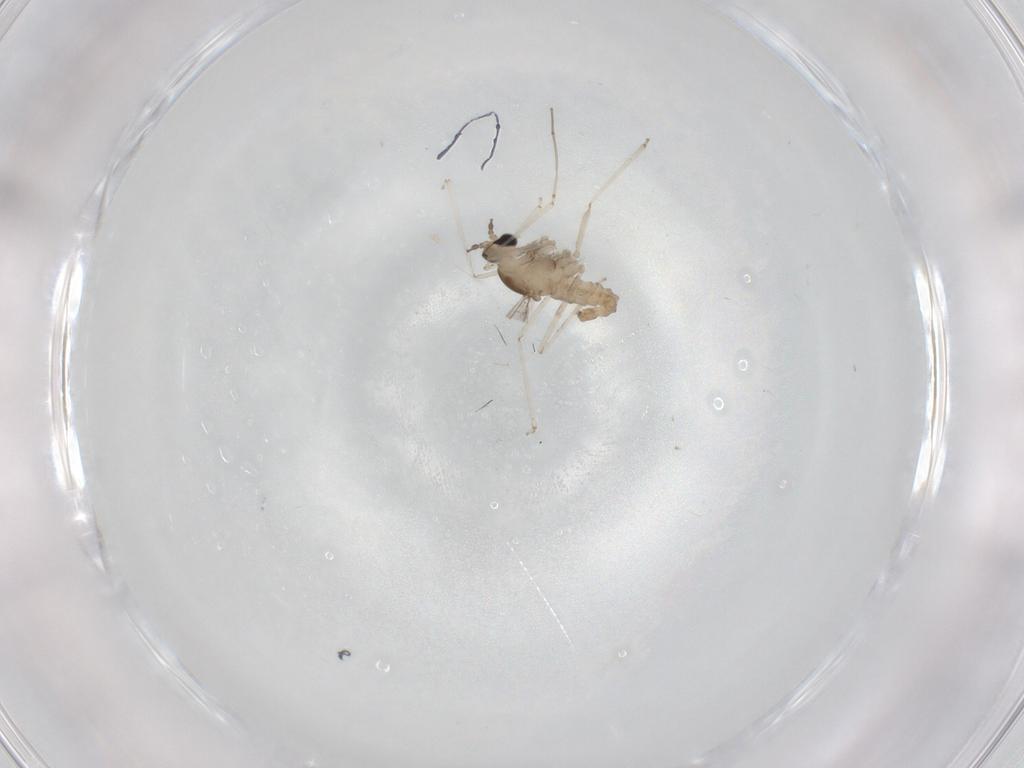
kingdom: Animalia
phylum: Arthropoda
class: Insecta
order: Diptera
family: Cecidomyiidae
